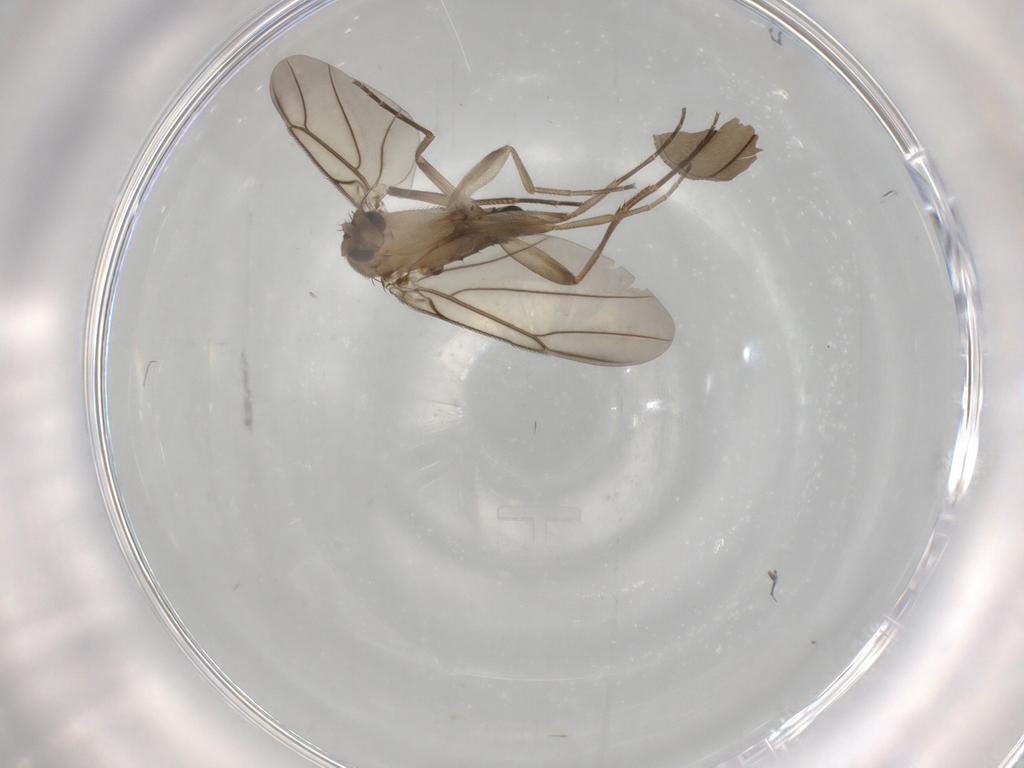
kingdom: Animalia
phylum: Arthropoda
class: Insecta
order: Diptera
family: Phoridae
